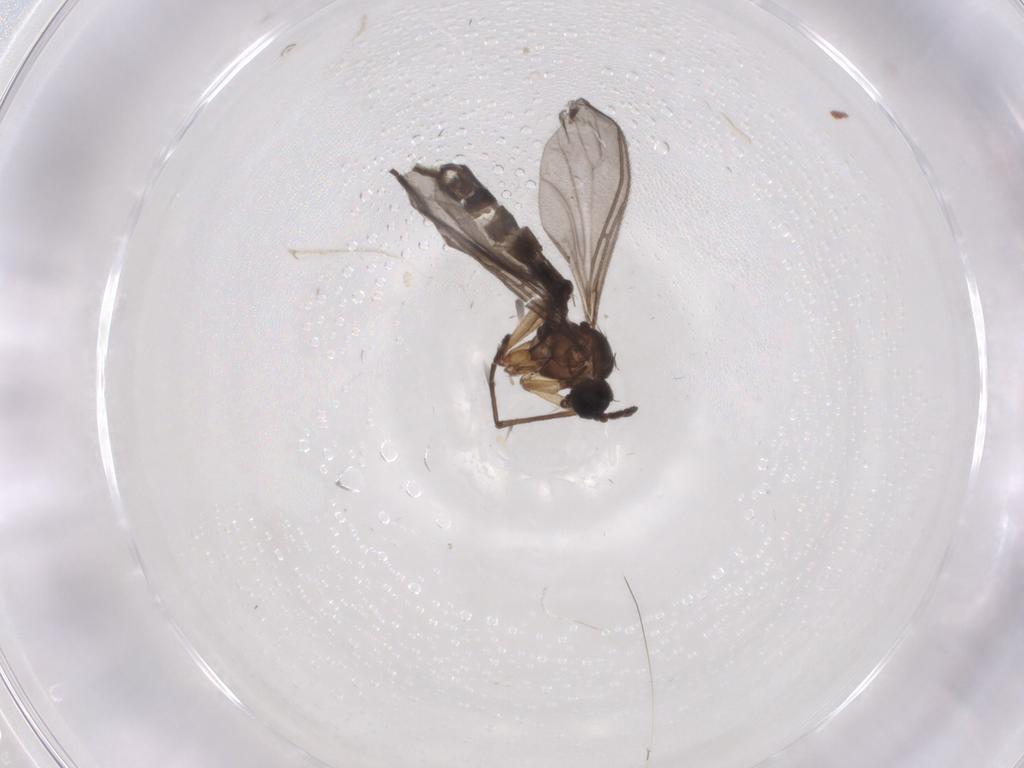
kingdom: Animalia
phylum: Arthropoda
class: Insecta
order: Diptera
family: Sciaridae
